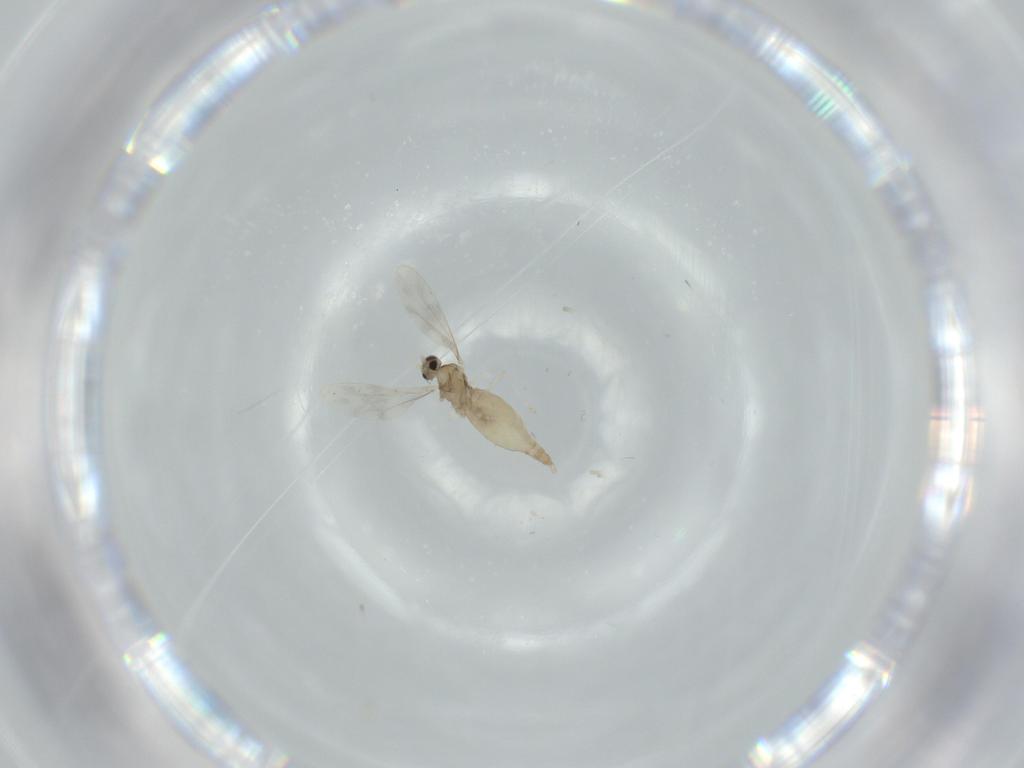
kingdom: Animalia
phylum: Arthropoda
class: Insecta
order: Diptera
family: Cecidomyiidae
